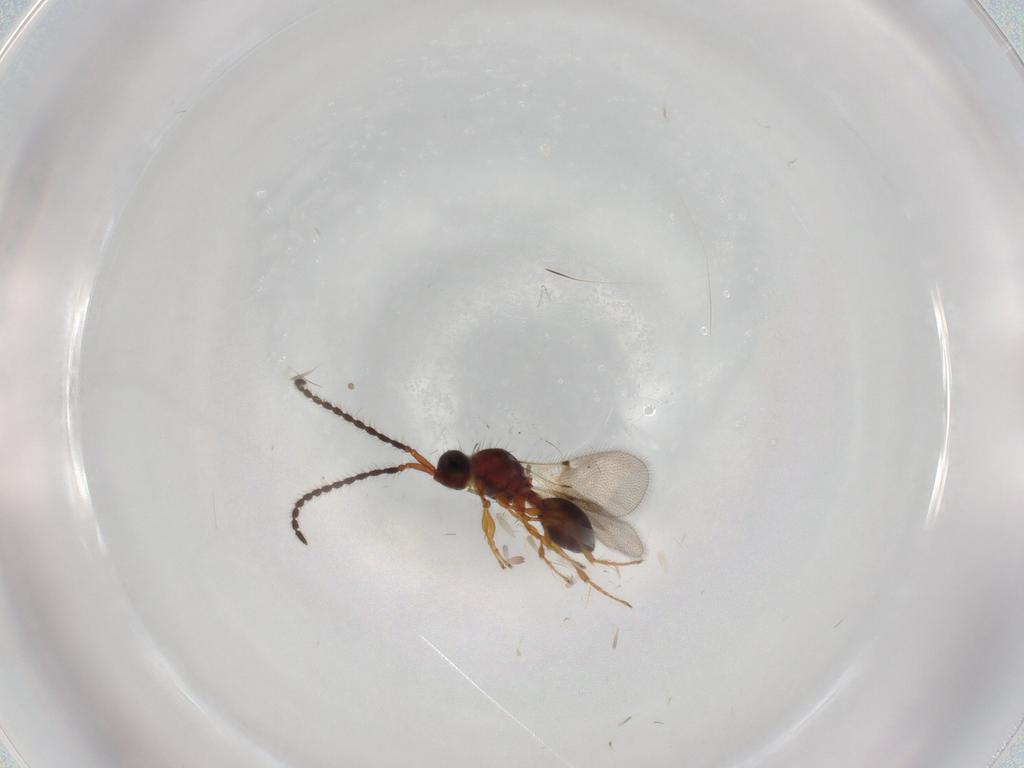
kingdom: Animalia
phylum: Arthropoda
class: Insecta
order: Hymenoptera
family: Diapriidae
